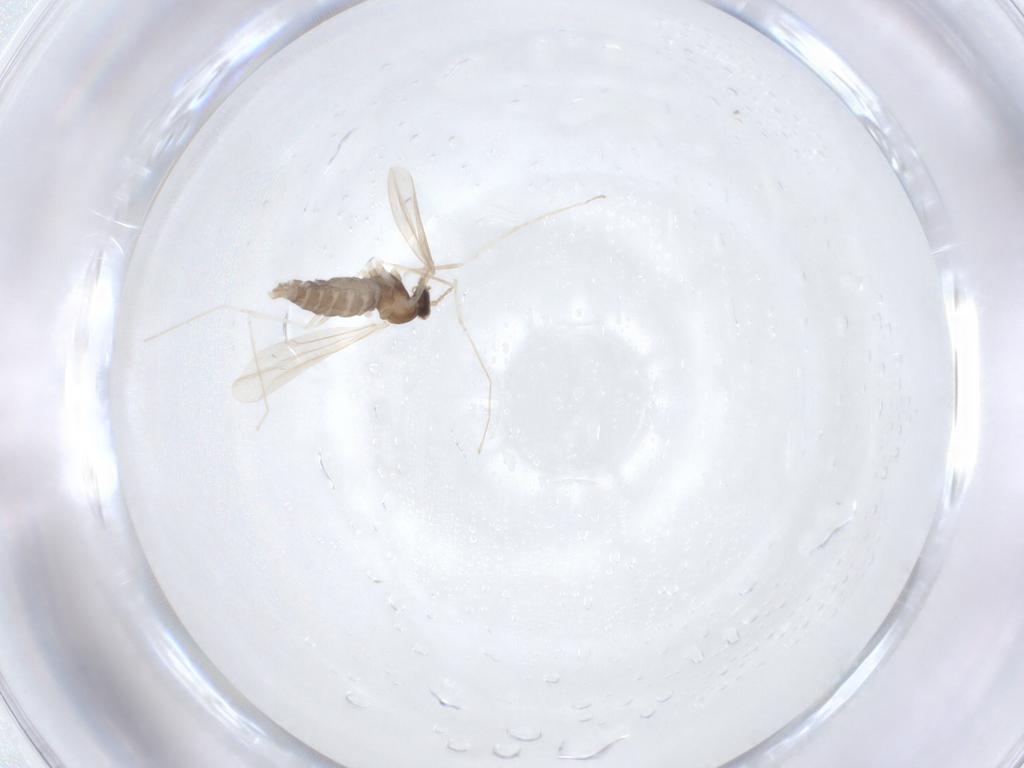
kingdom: Animalia
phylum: Arthropoda
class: Insecta
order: Diptera
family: Cecidomyiidae
